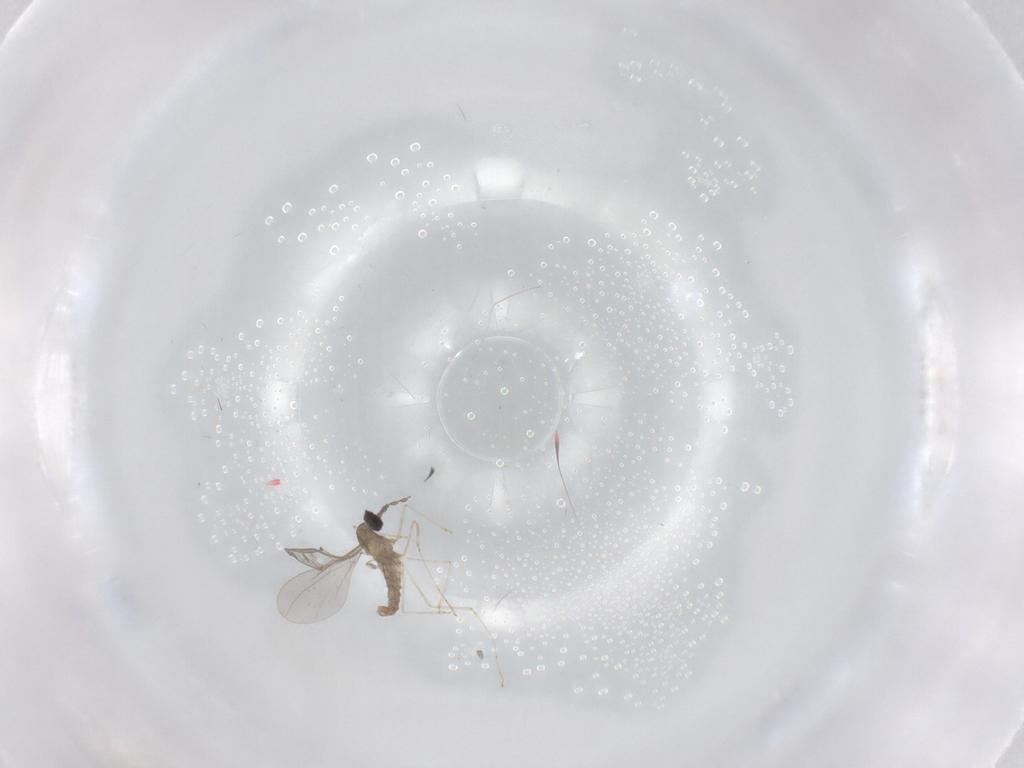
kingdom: Animalia
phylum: Arthropoda
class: Insecta
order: Diptera
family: Cecidomyiidae
